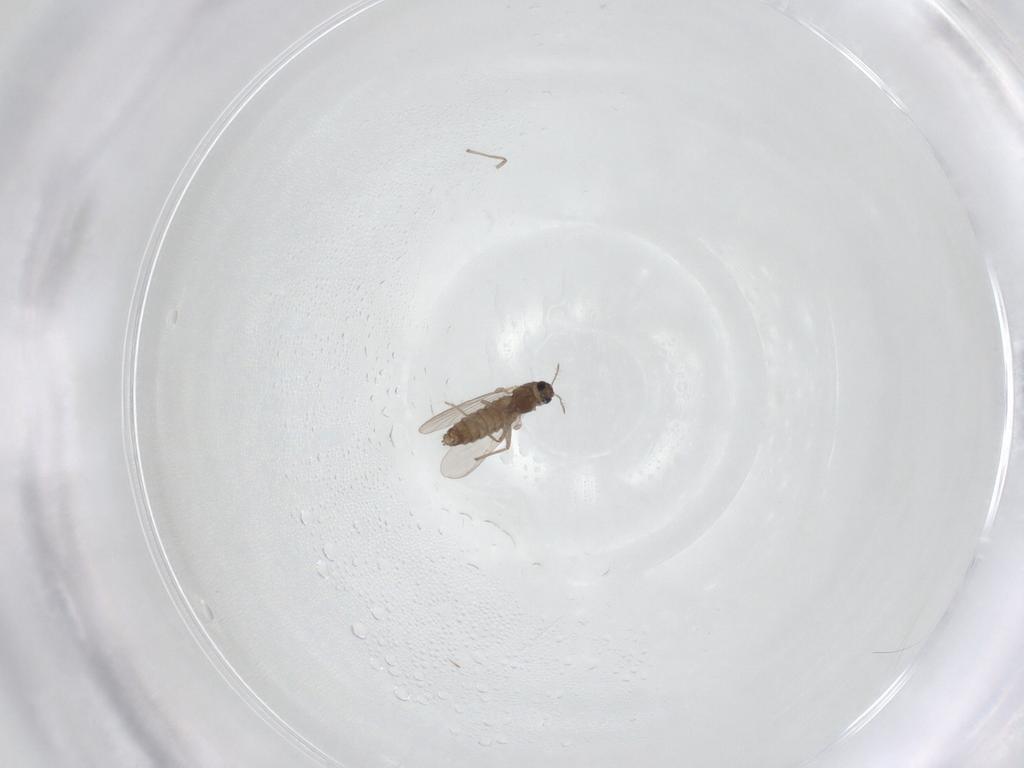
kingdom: Animalia
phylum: Arthropoda
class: Insecta
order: Diptera
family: Chironomidae
